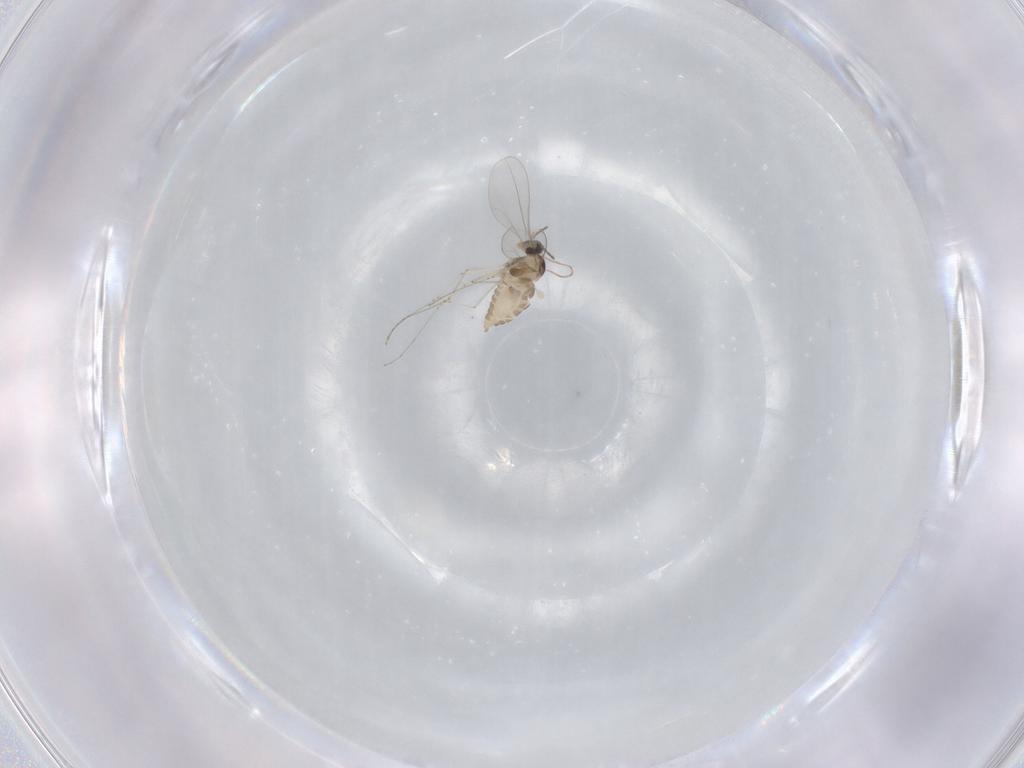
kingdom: Animalia
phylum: Arthropoda
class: Insecta
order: Diptera
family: Cecidomyiidae
